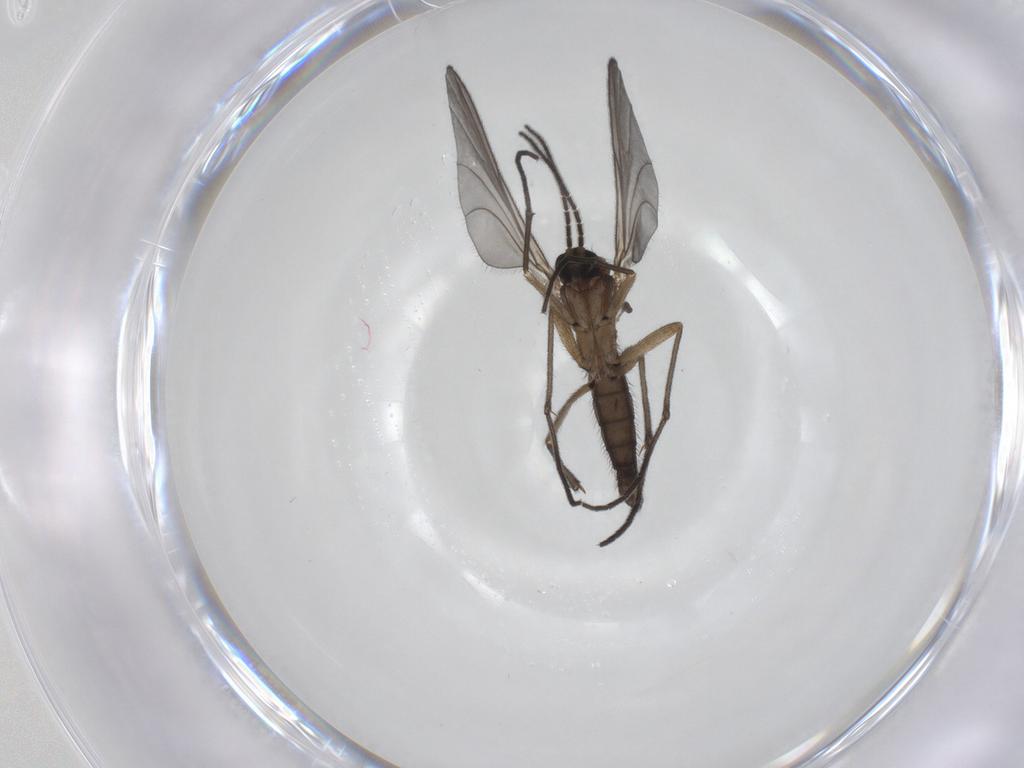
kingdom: Animalia
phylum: Arthropoda
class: Insecta
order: Diptera
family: Sciaridae
